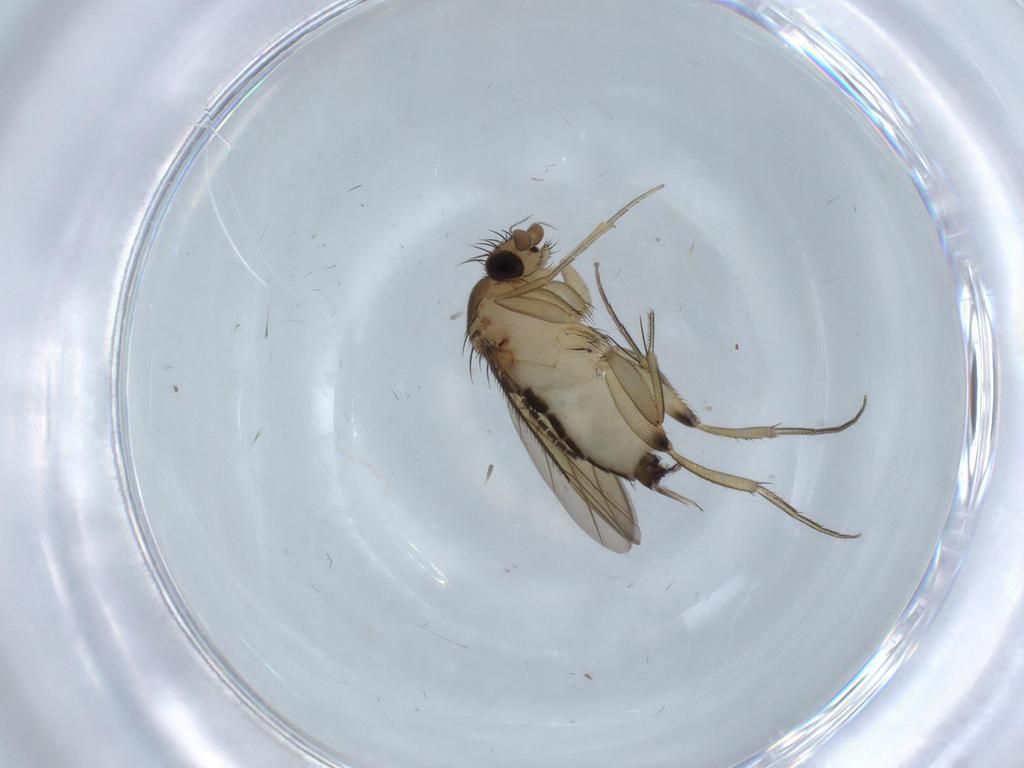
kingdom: Animalia
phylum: Arthropoda
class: Insecta
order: Diptera
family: Sciaridae
